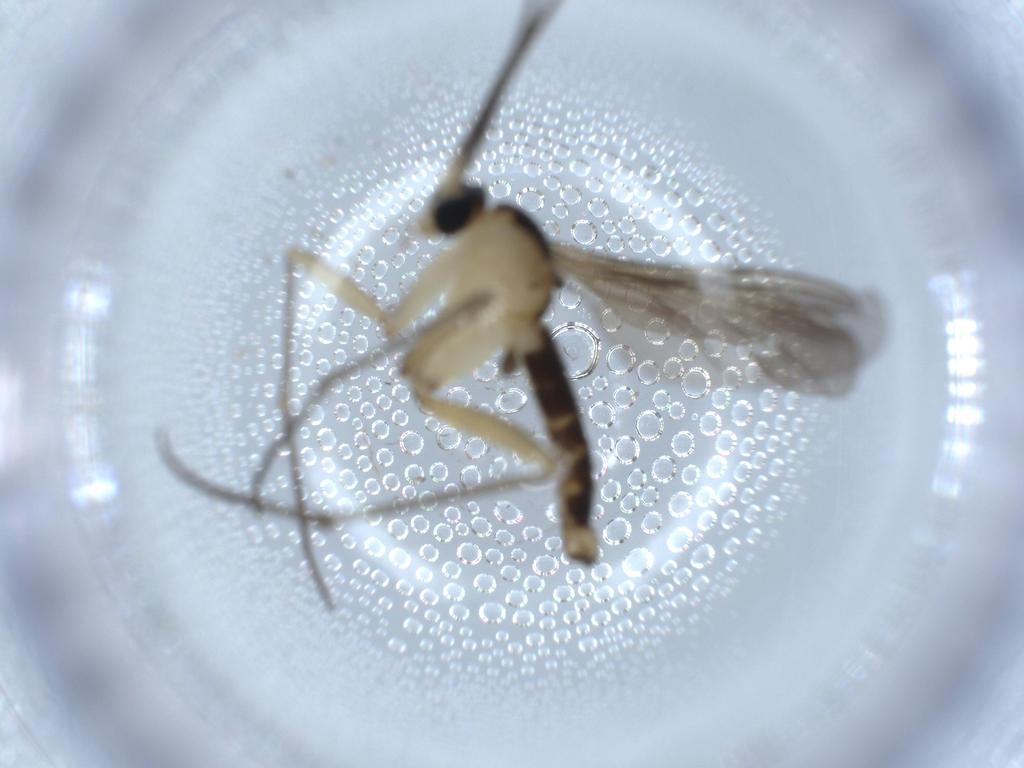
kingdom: Animalia
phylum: Arthropoda
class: Insecta
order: Diptera
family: Sciaridae
